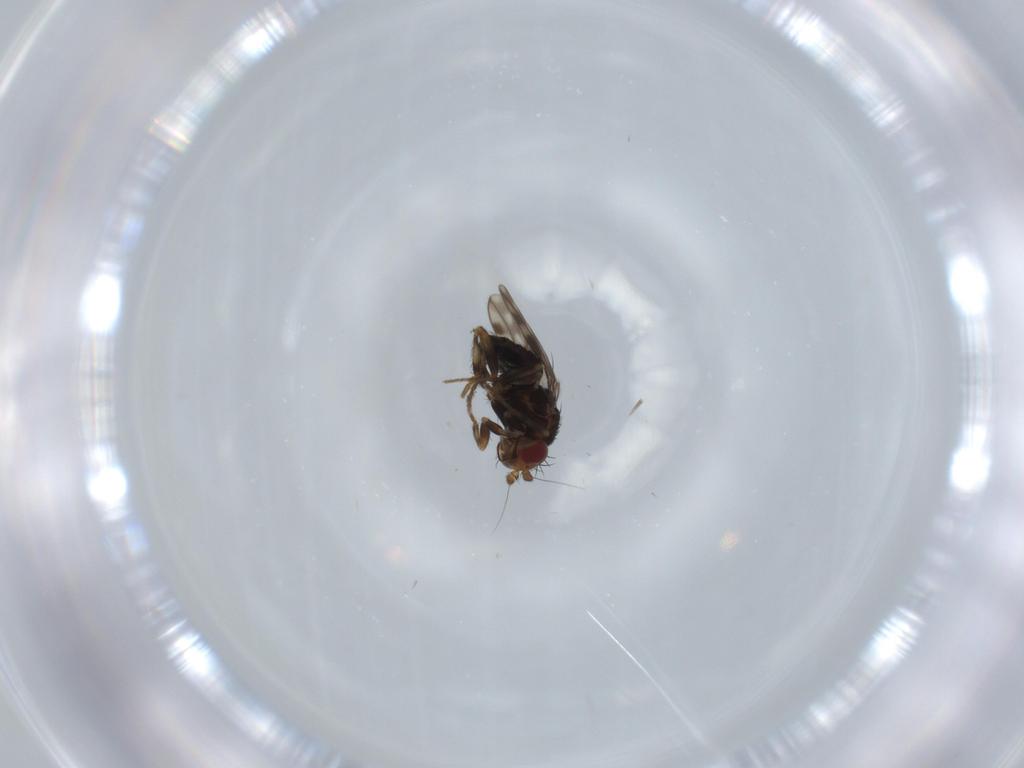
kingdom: Animalia
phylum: Arthropoda
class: Insecta
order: Diptera
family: Sphaeroceridae
